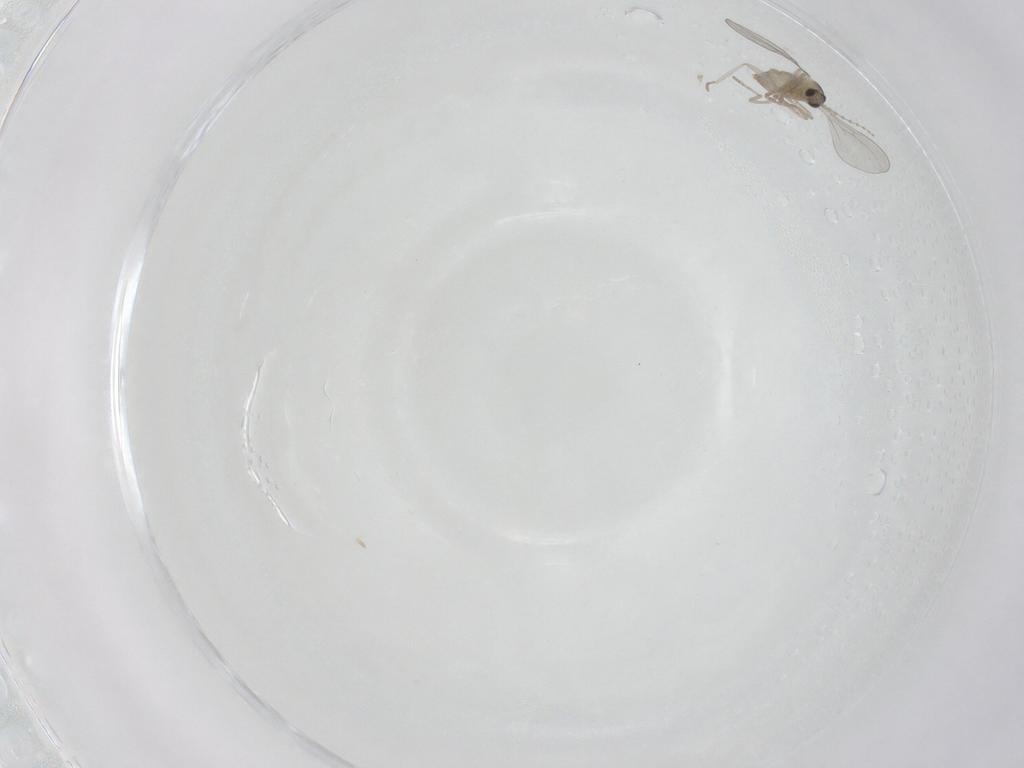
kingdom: Animalia
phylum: Arthropoda
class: Insecta
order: Diptera
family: Cecidomyiidae
